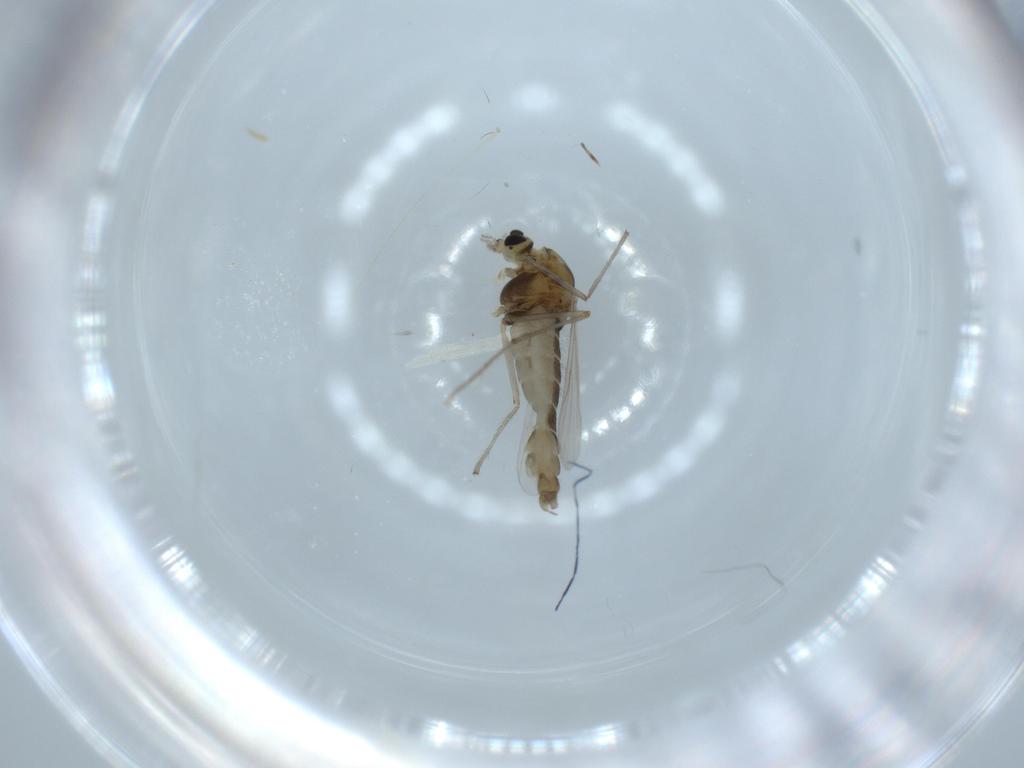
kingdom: Animalia
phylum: Arthropoda
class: Insecta
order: Diptera
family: Chironomidae
